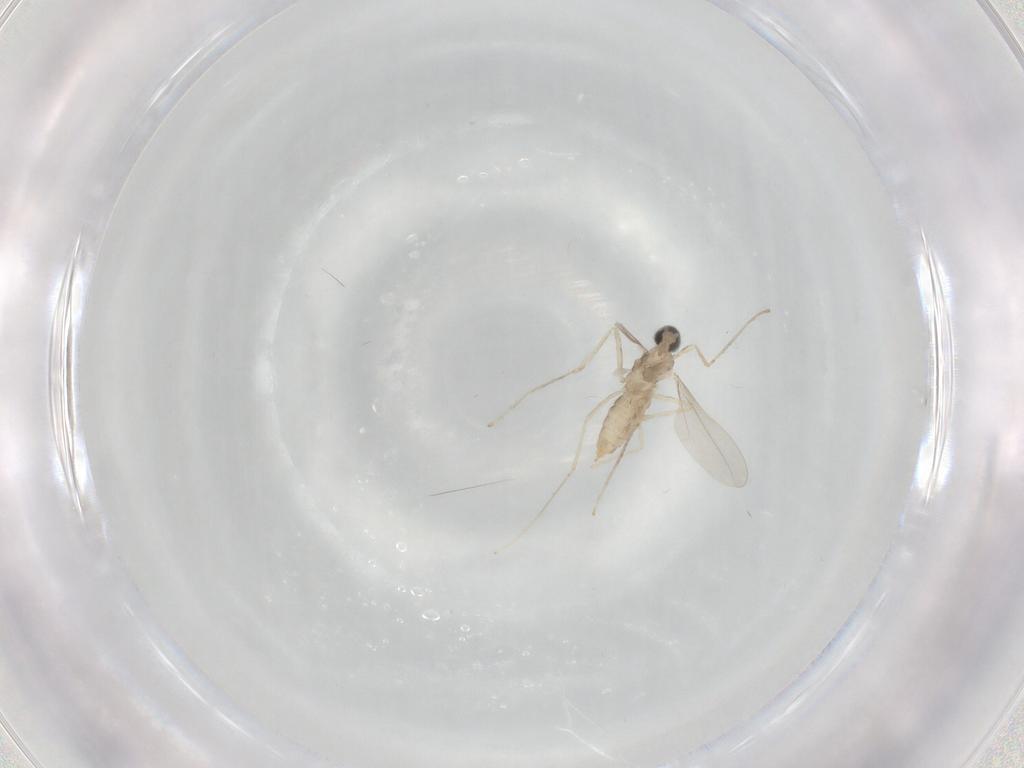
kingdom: Animalia
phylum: Arthropoda
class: Insecta
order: Diptera
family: Cecidomyiidae
